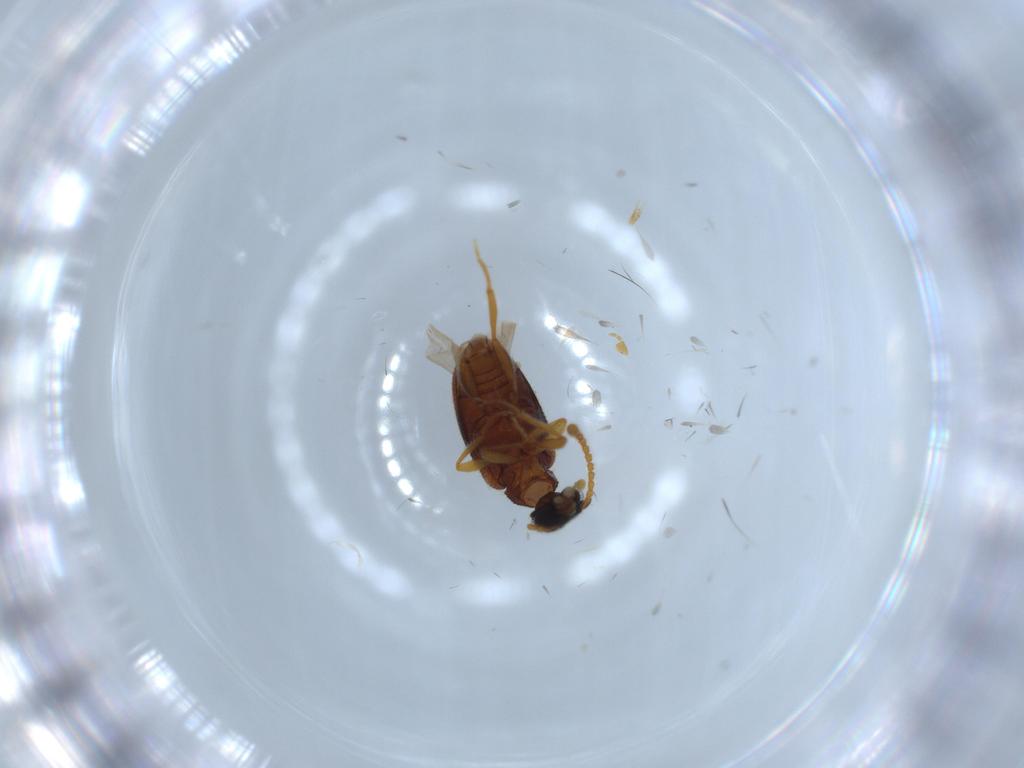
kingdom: Animalia
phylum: Arthropoda
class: Insecta
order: Coleoptera
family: Aderidae
